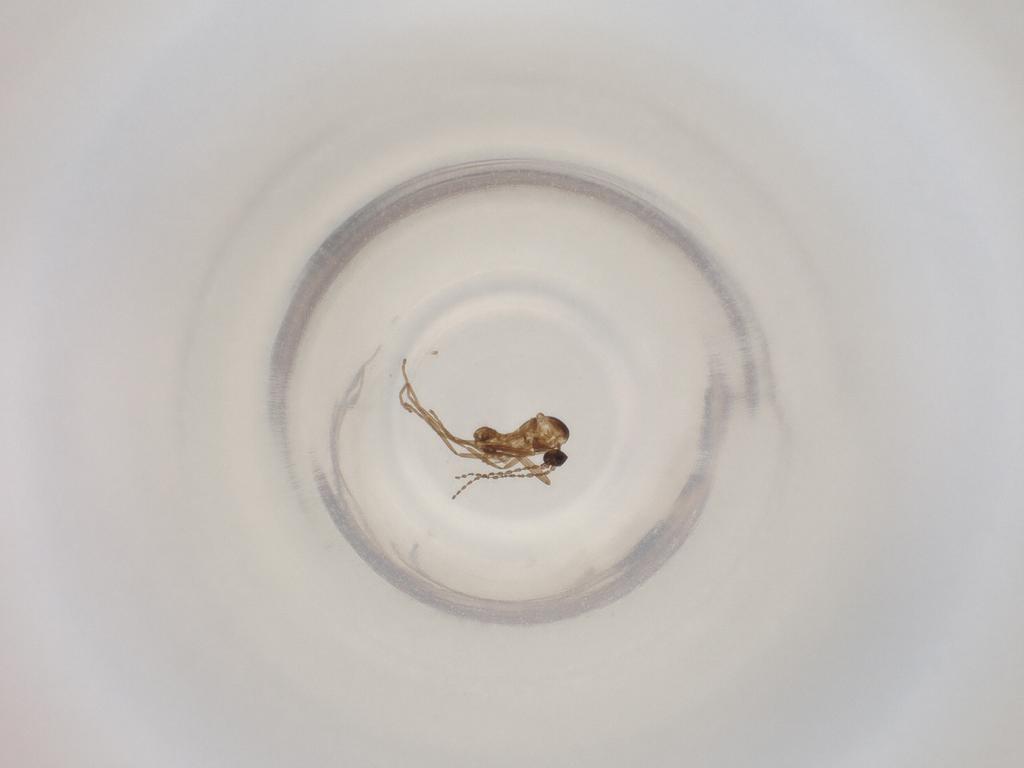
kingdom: Animalia
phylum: Arthropoda
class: Insecta
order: Diptera
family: Cecidomyiidae
